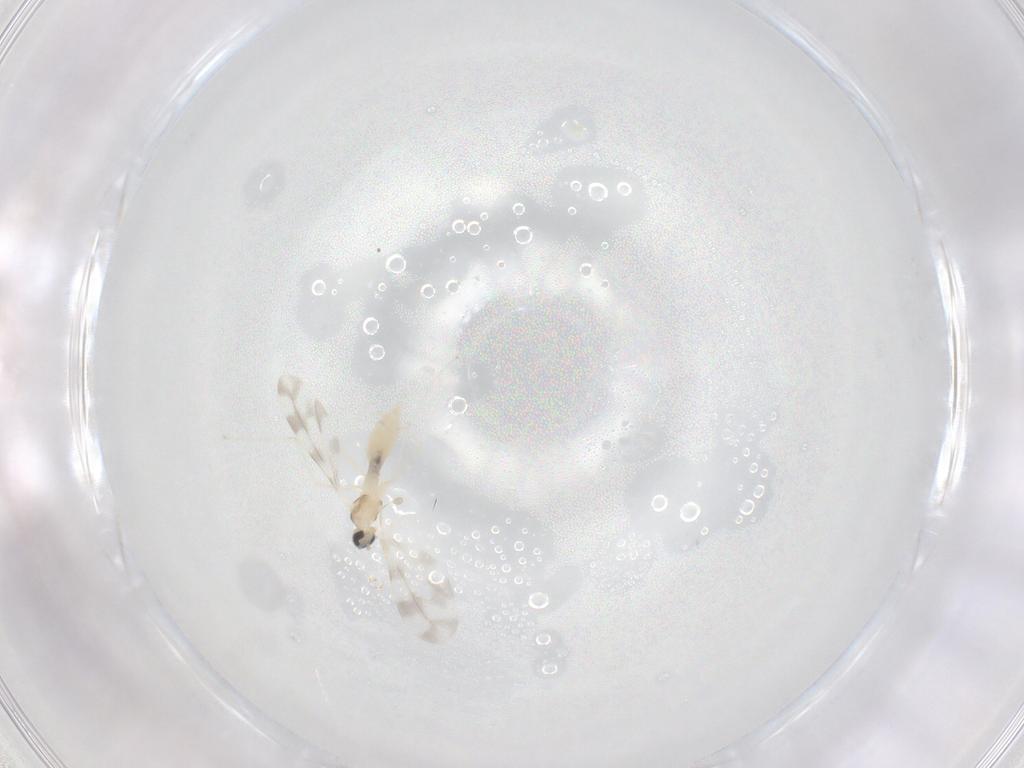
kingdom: Animalia
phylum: Arthropoda
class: Insecta
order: Diptera
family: Cecidomyiidae
